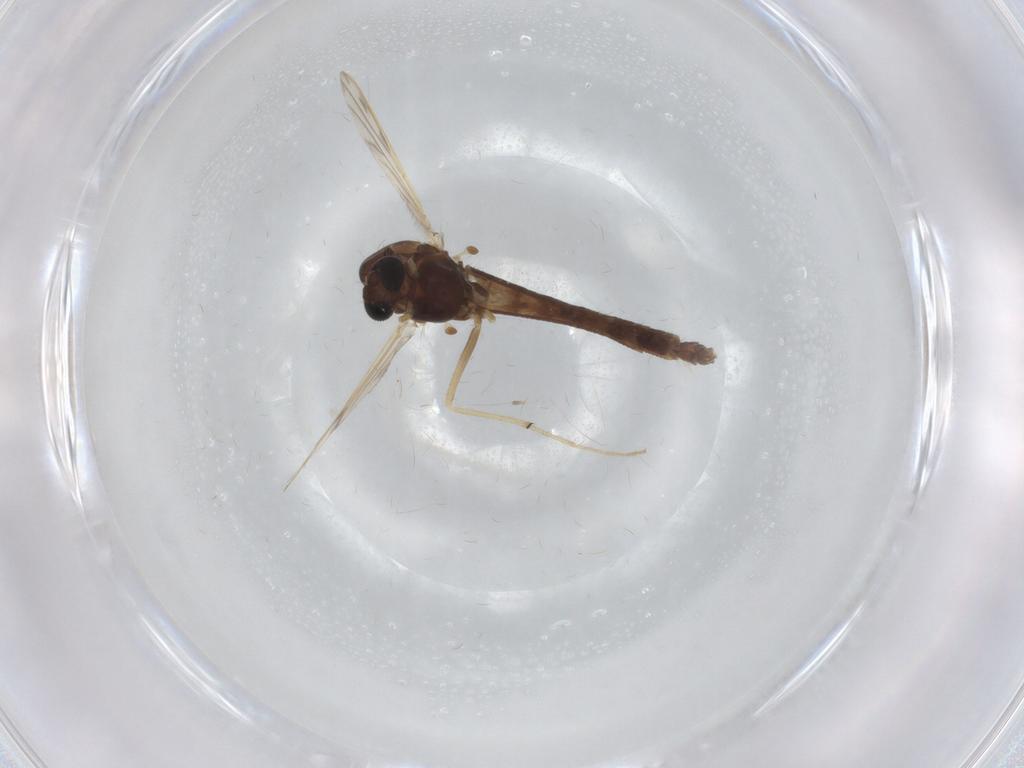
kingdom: Animalia
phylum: Arthropoda
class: Insecta
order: Diptera
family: Chironomidae
